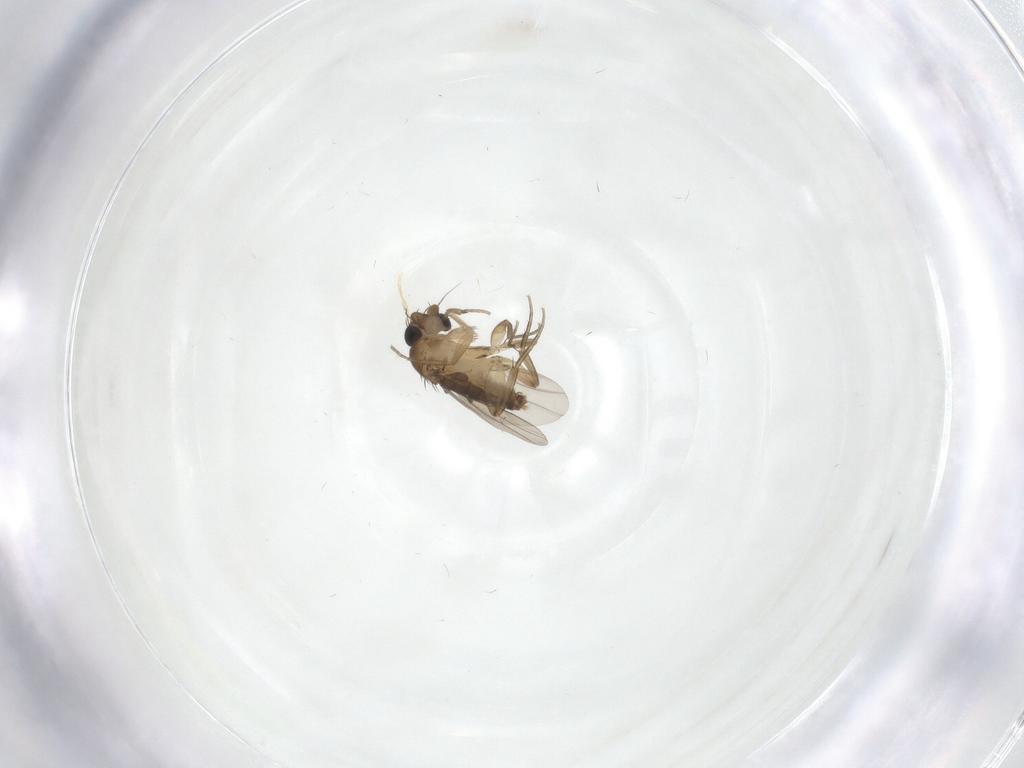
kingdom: Animalia
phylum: Arthropoda
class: Insecta
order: Diptera
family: Phoridae
